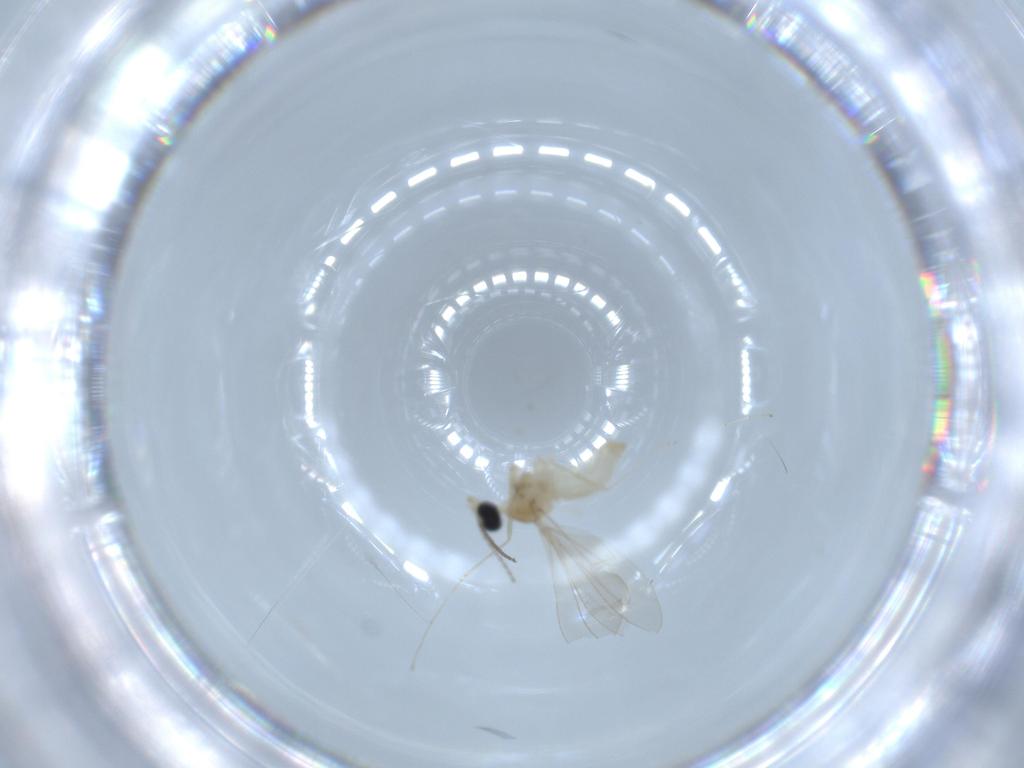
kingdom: Animalia
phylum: Arthropoda
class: Insecta
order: Diptera
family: Cecidomyiidae
